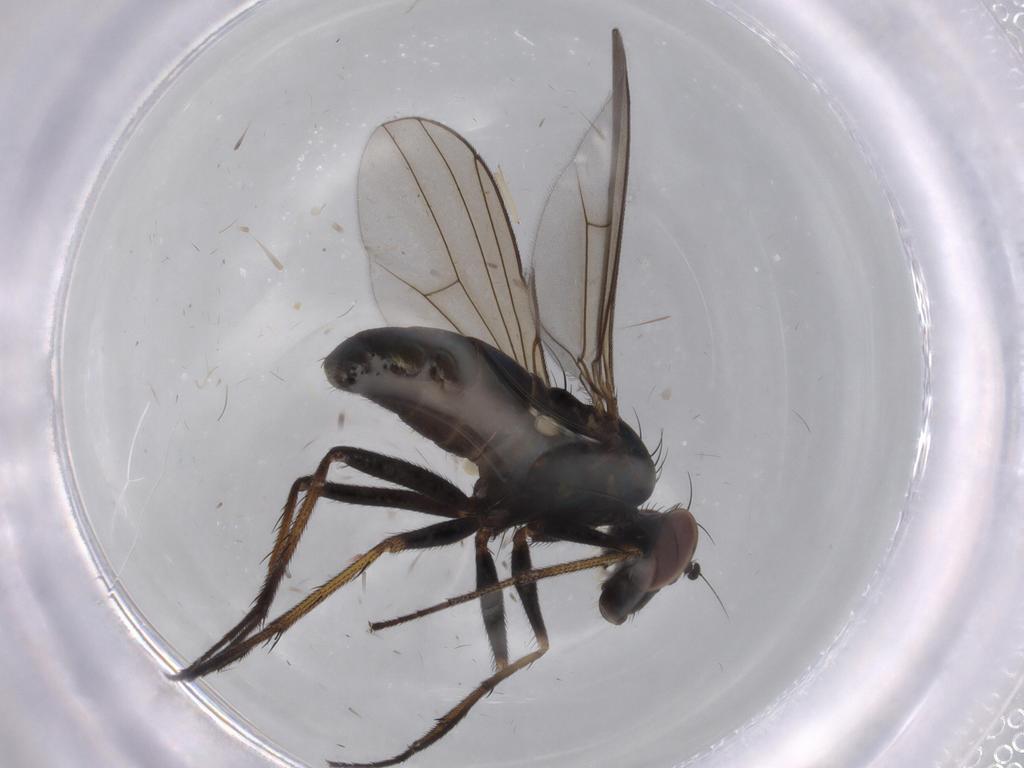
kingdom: Animalia
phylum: Arthropoda
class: Insecta
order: Diptera
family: Dolichopodidae
